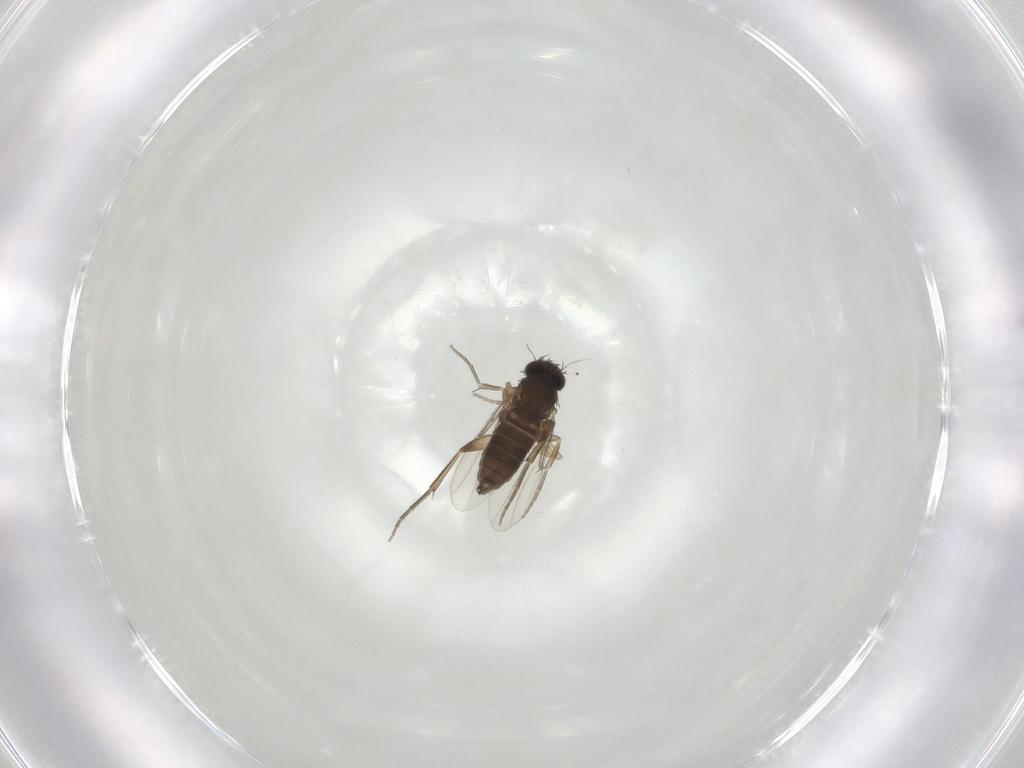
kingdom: Animalia
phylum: Arthropoda
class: Insecta
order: Diptera
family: Phoridae
